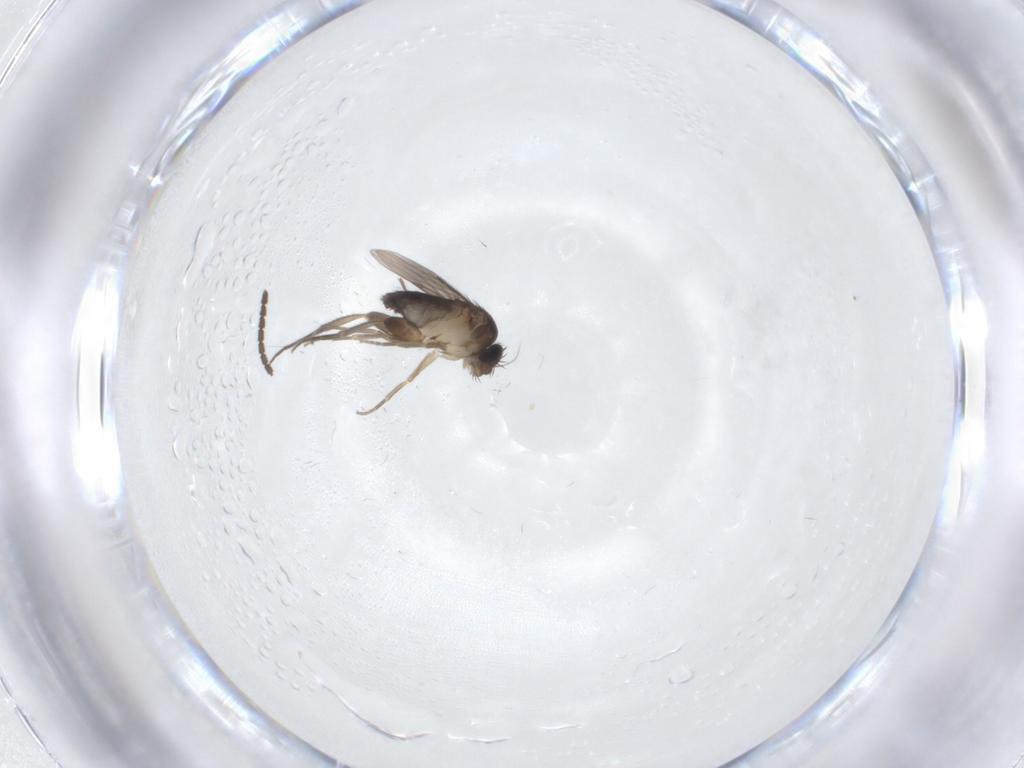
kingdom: Animalia
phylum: Arthropoda
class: Insecta
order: Diptera
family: Phoridae
